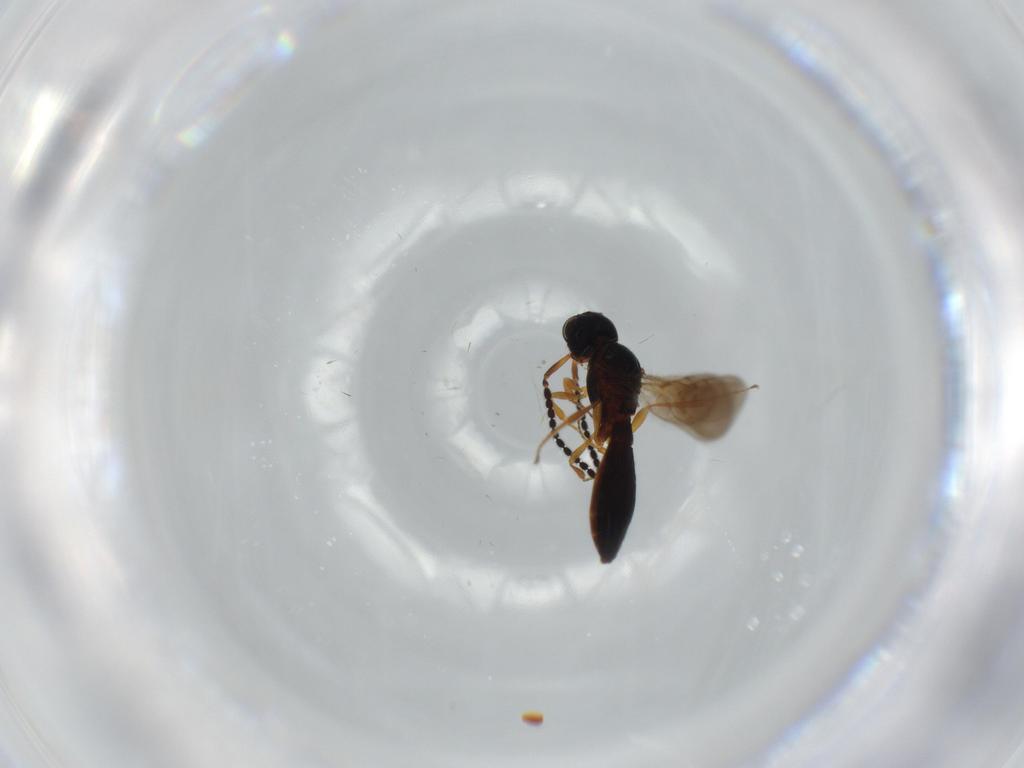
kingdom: Animalia
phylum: Arthropoda
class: Insecta
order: Hymenoptera
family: Scelionidae
